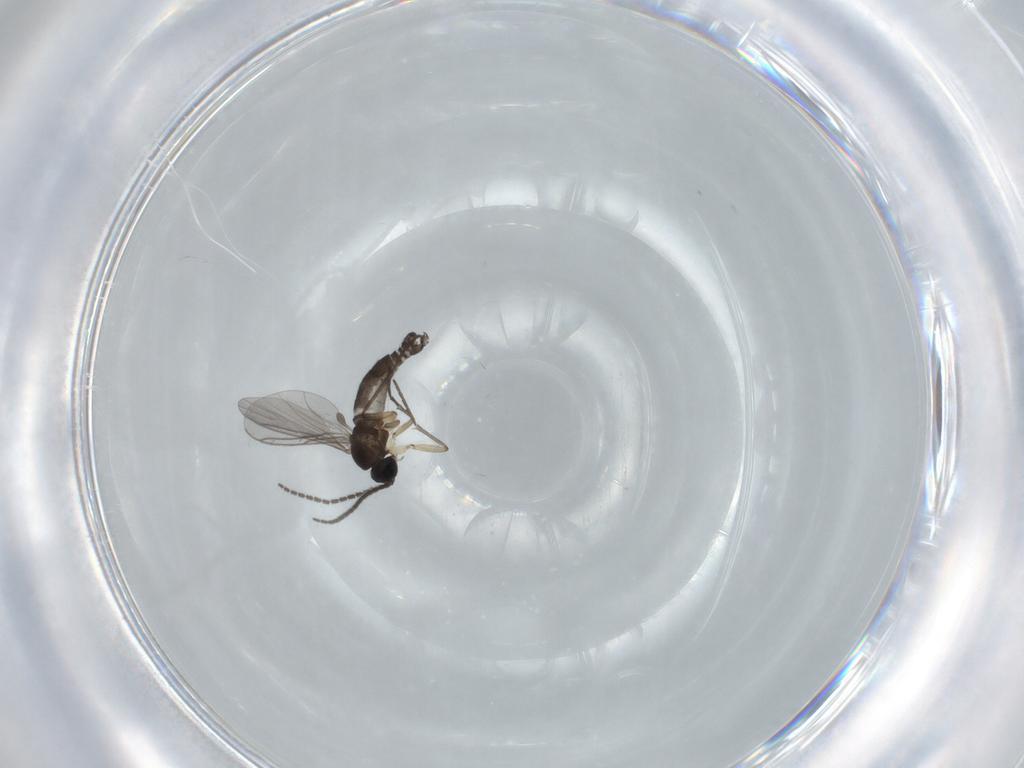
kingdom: Animalia
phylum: Arthropoda
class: Insecta
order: Diptera
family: Sciaridae
